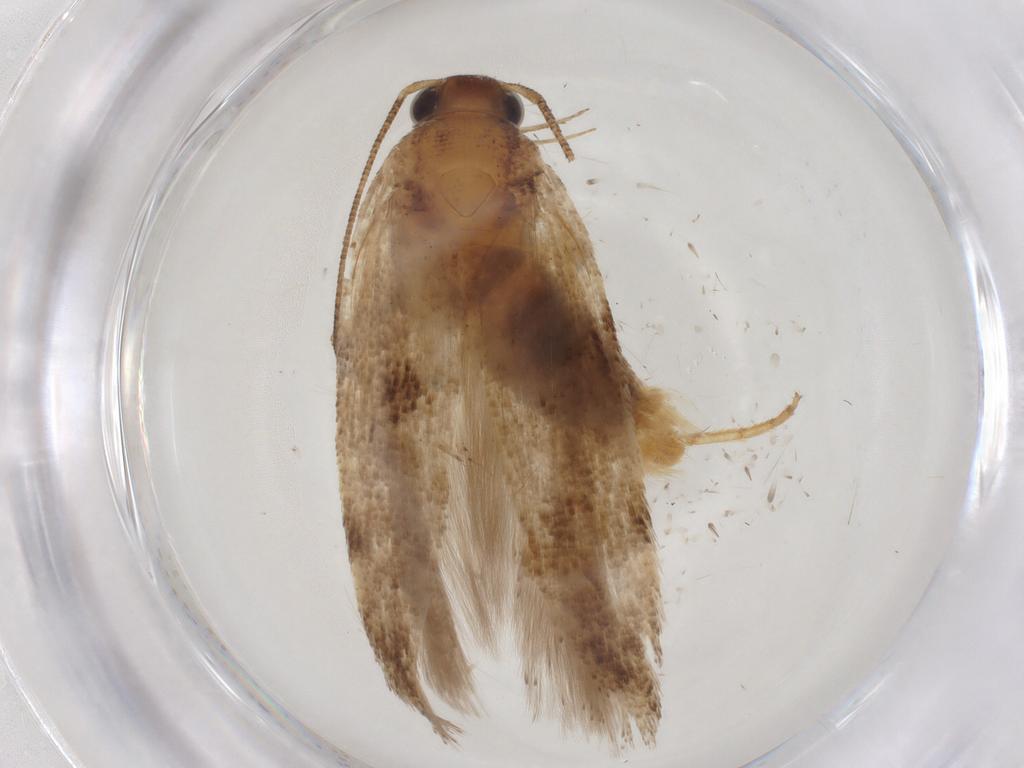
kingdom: Animalia
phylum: Arthropoda
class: Insecta
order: Lepidoptera
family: Gelechiidae
